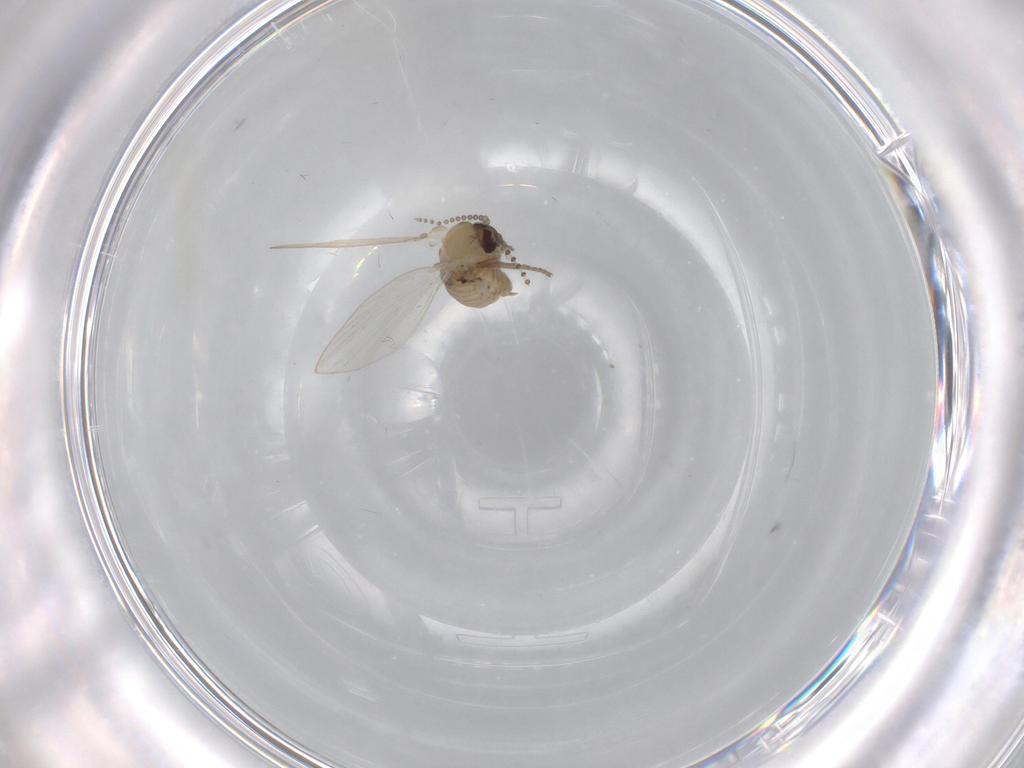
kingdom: Animalia
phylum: Arthropoda
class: Insecta
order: Diptera
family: Psychodidae
